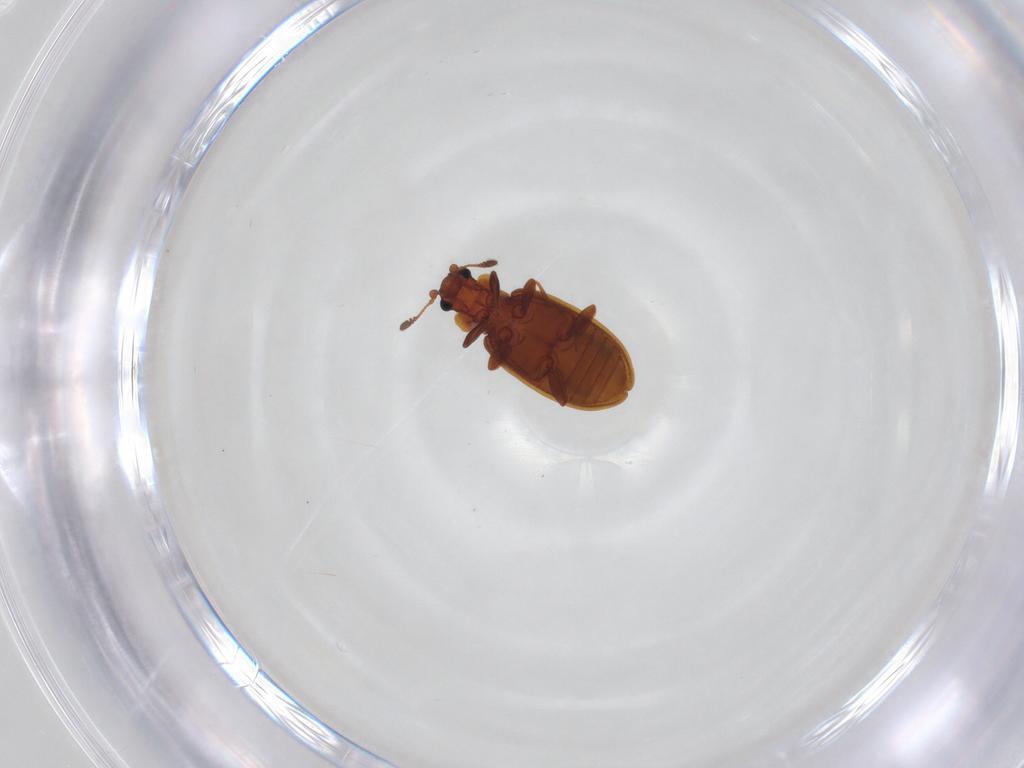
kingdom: Animalia
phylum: Arthropoda
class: Insecta
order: Coleoptera
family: Latridiidae
